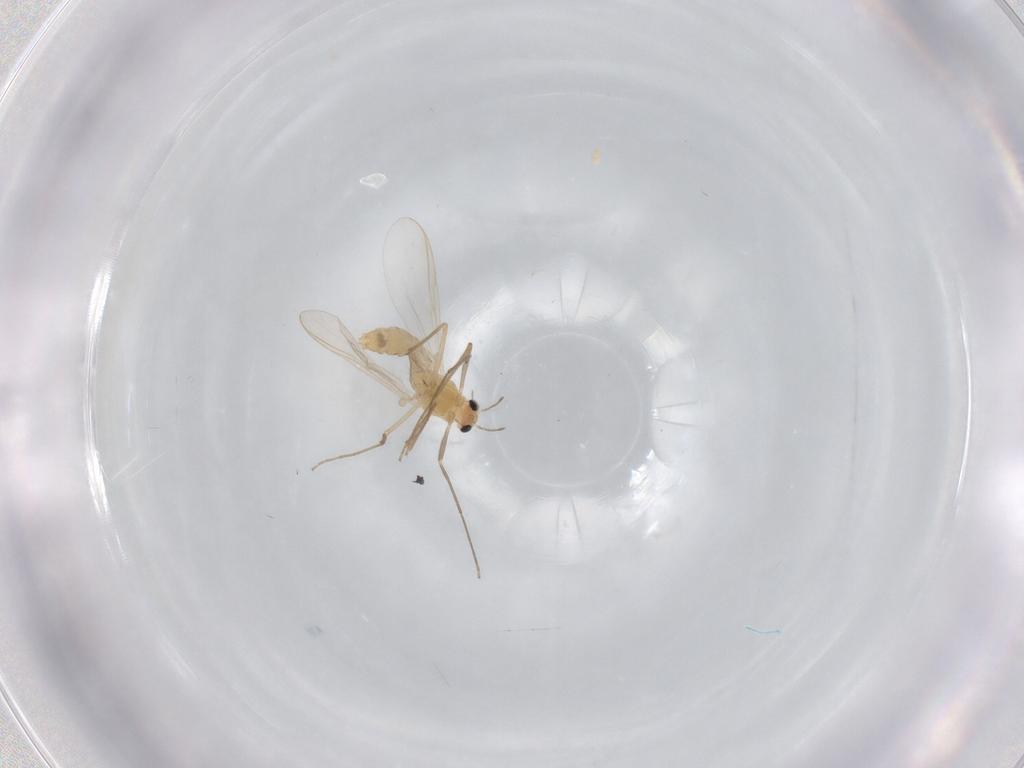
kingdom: Animalia
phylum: Arthropoda
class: Insecta
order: Diptera
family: Chironomidae
